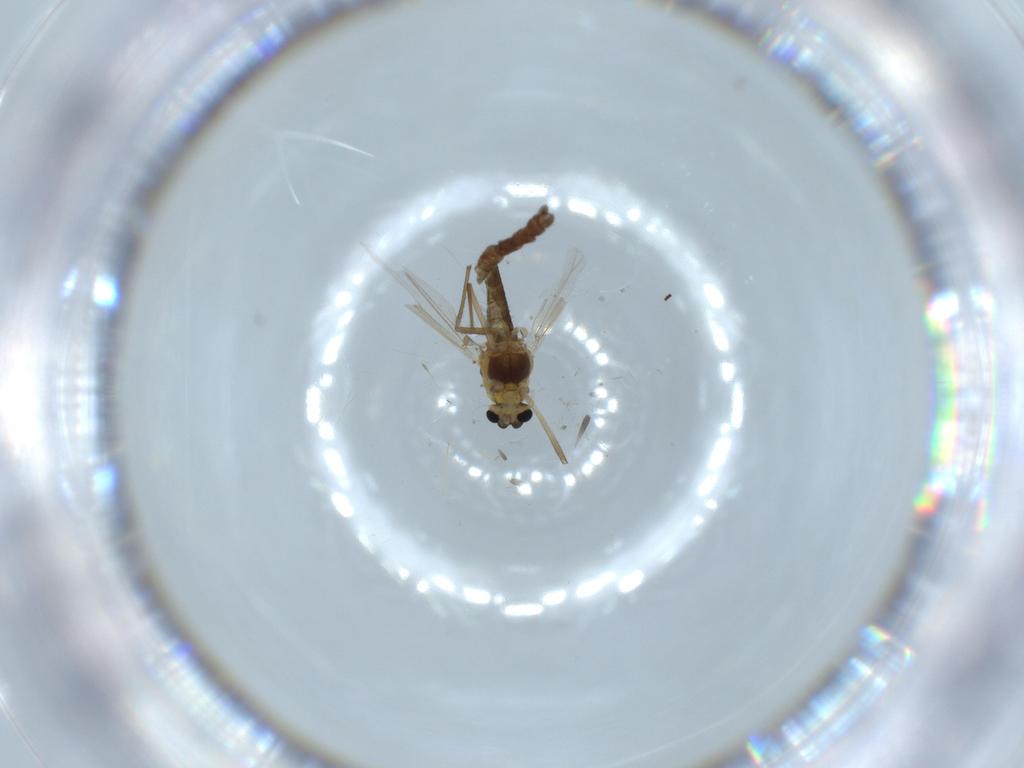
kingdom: Animalia
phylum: Arthropoda
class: Insecta
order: Diptera
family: Chironomidae
